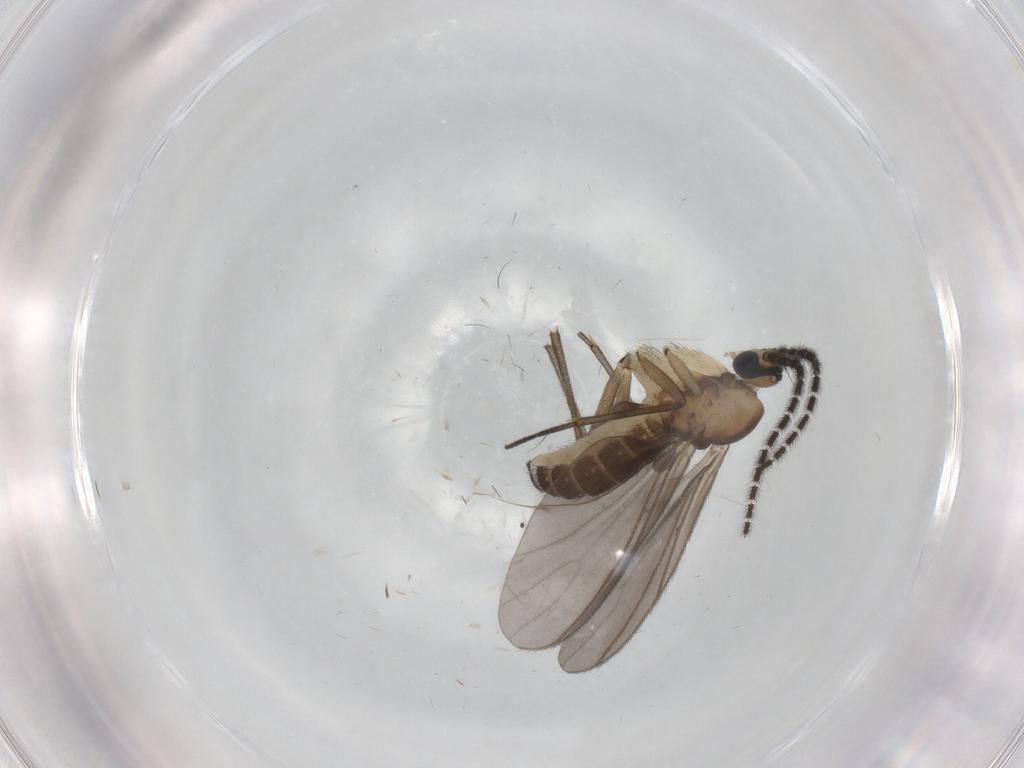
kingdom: Animalia
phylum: Arthropoda
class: Insecta
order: Diptera
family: Sciaridae
